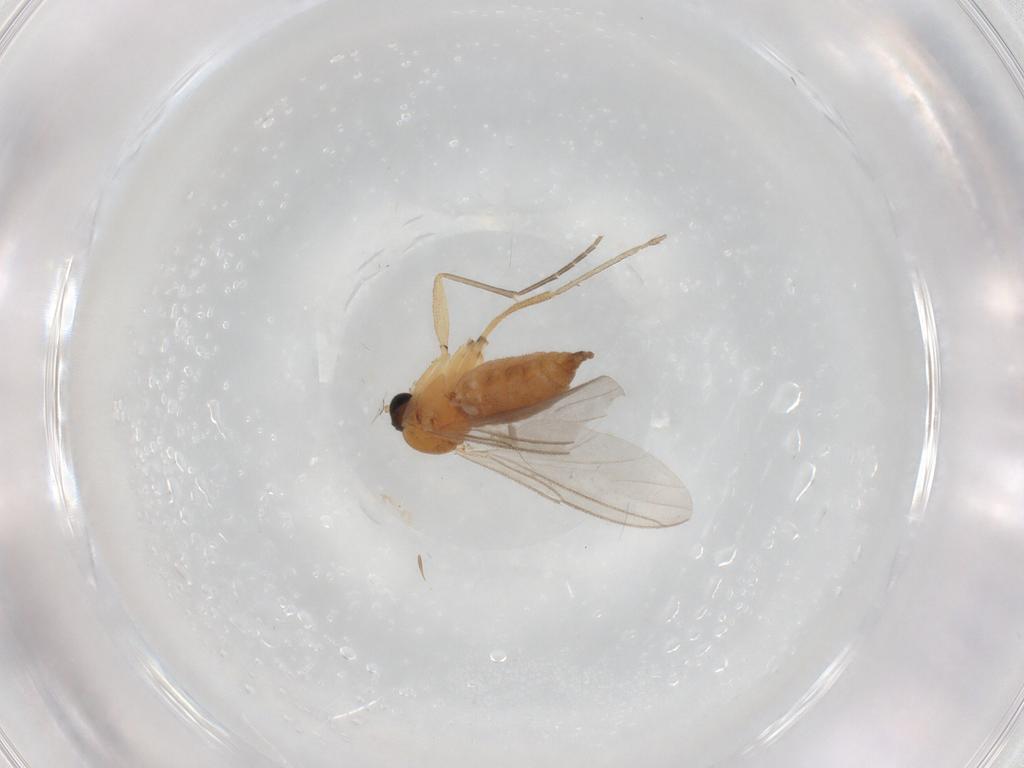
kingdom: Animalia
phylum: Arthropoda
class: Insecta
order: Diptera
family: Sciaridae
